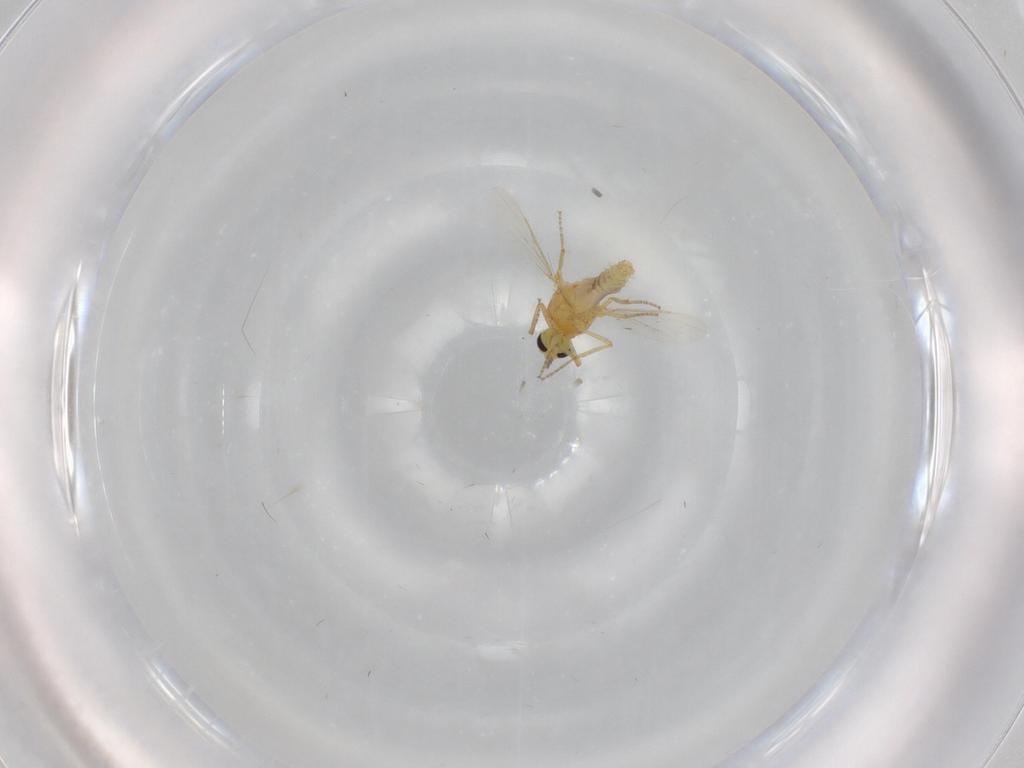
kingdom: Animalia
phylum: Arthropoda
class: Insecta
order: Diptera
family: Ceratopogonidae
